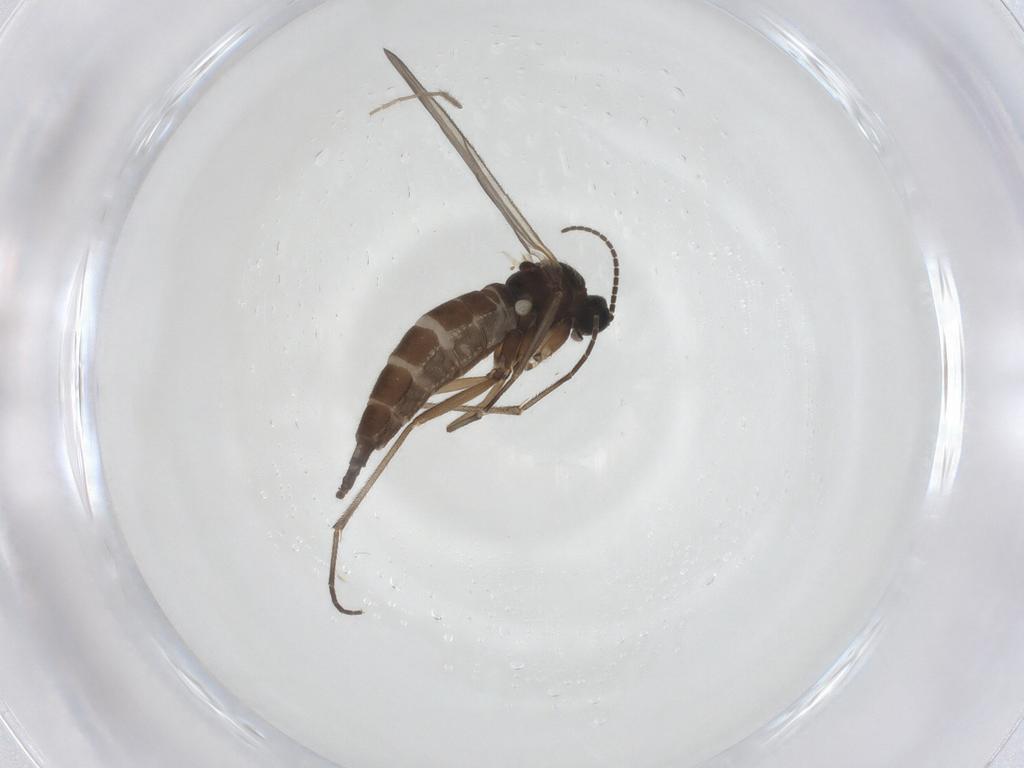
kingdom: Animalia
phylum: Arthropoda
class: Insecta
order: Diptera
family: Sciaridae
